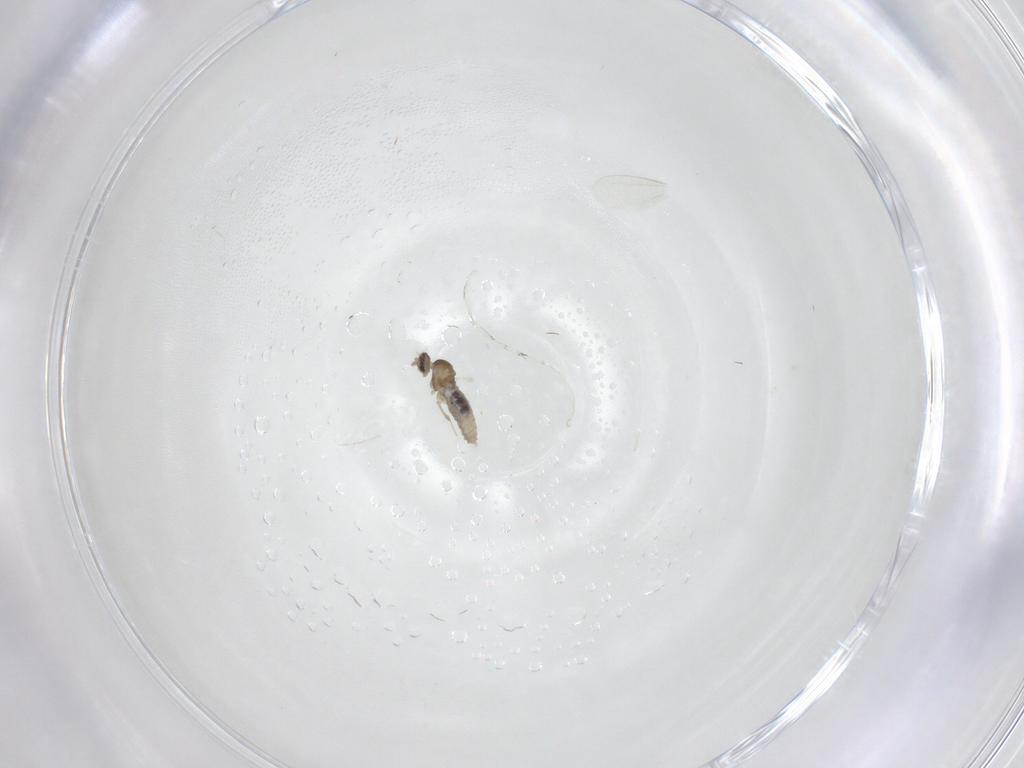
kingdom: Animalia
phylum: Arthropoda
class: Insecta
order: Diptera
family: Cecidomyiidae
